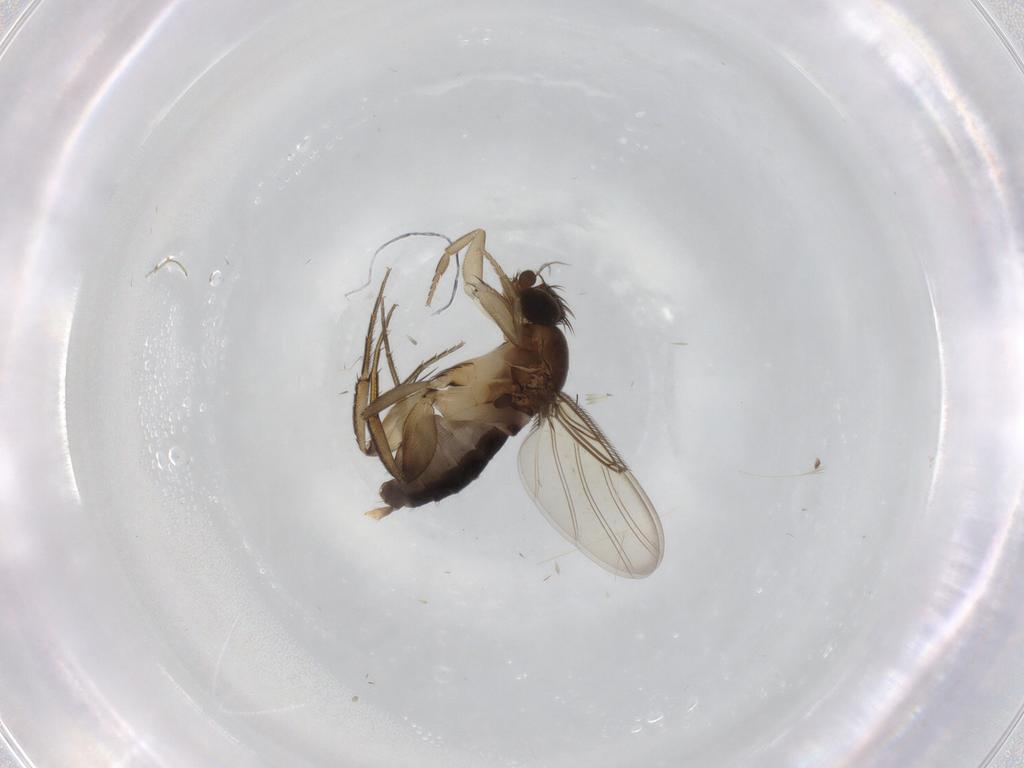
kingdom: Animalia
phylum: Arthropoda
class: Insecta
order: Diptera
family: Phoridae
